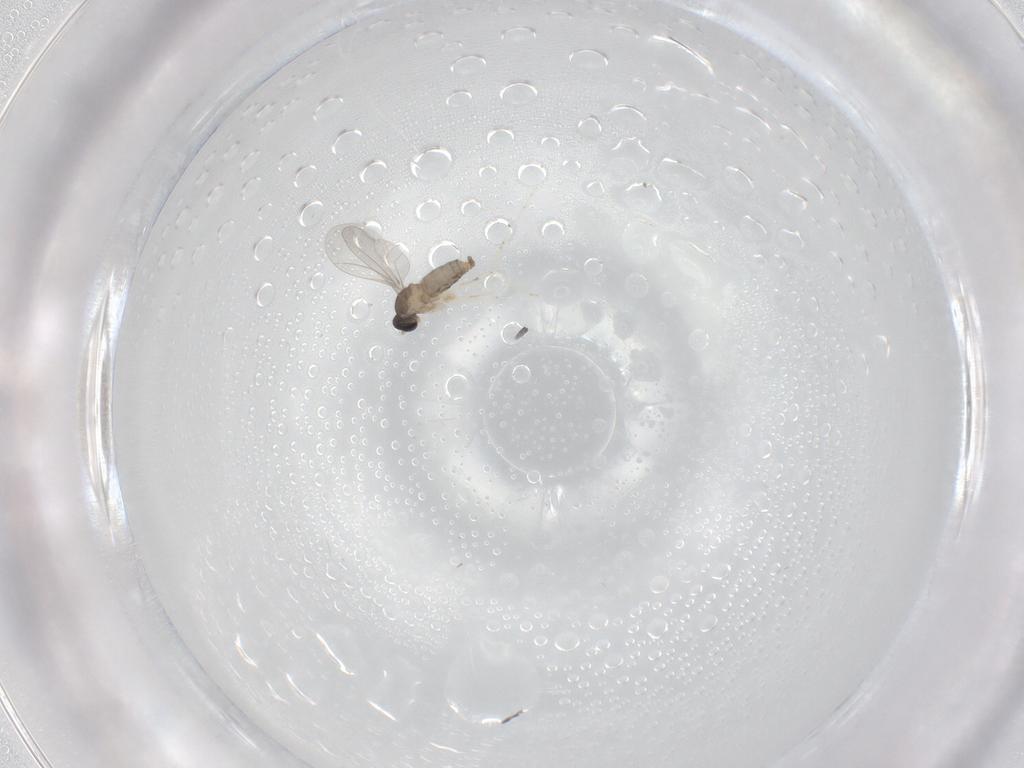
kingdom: Animalia
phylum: Arthropoda
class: Insecta
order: Diptera
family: Cecidomyiidae
